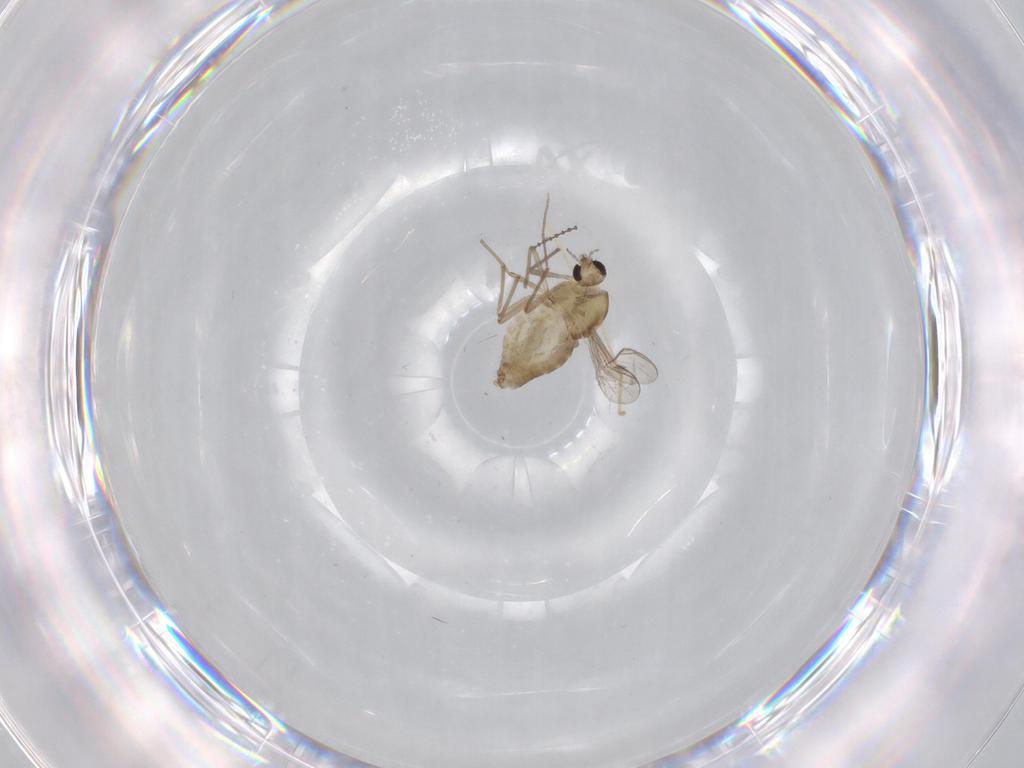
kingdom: Animalia
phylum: Arthropoda
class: Insecta
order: Diptera
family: Chironomidae
